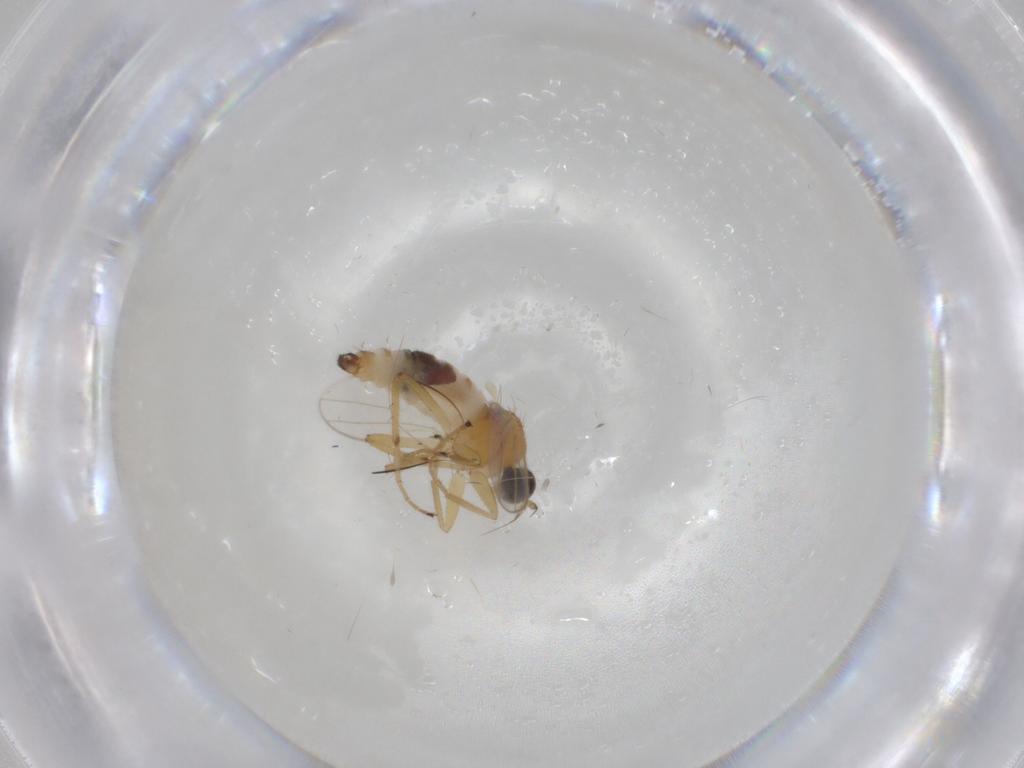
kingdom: Animalia
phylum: Arthropoda
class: Insecta
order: Diptera
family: Hybotidae
